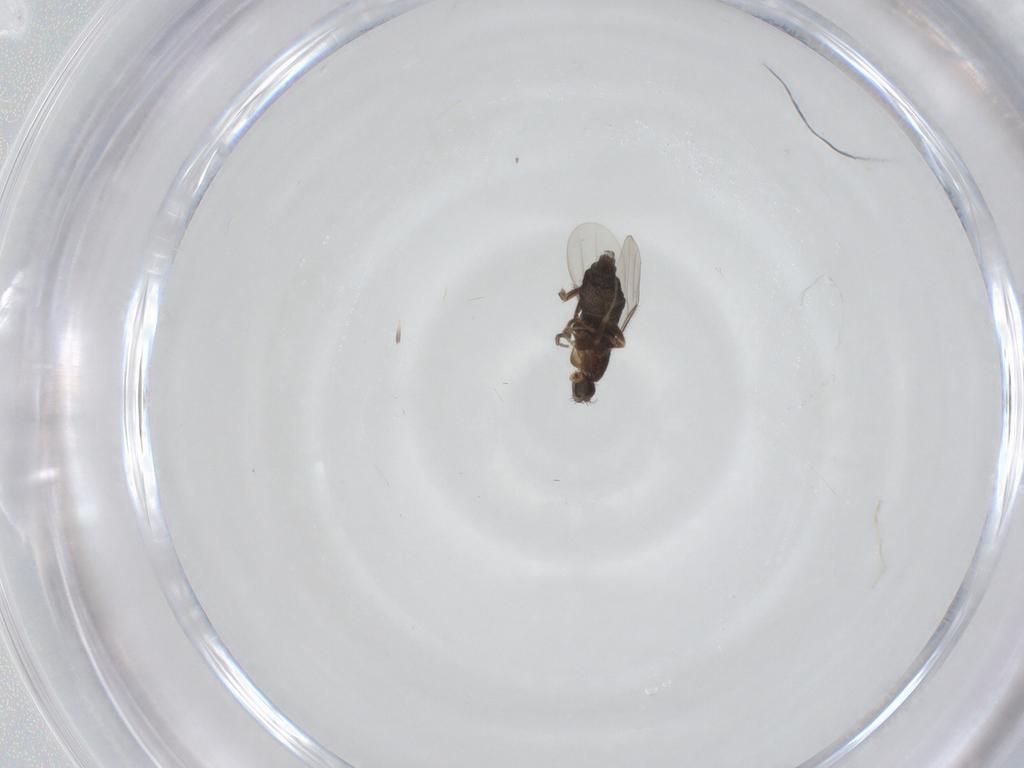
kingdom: Animalia
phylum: Arthropoda
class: Insecta
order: Diptera
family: Phoridae
